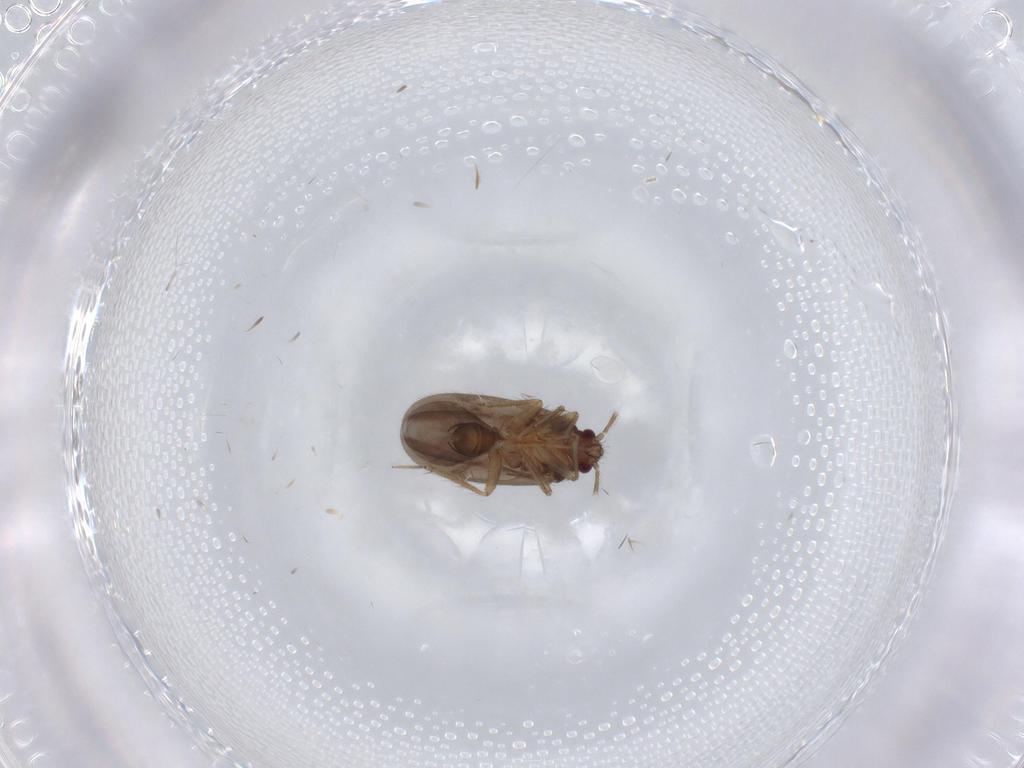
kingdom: Animalia
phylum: Arthropoda
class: Insecta
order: Hemiptera
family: Ceratocombidae
